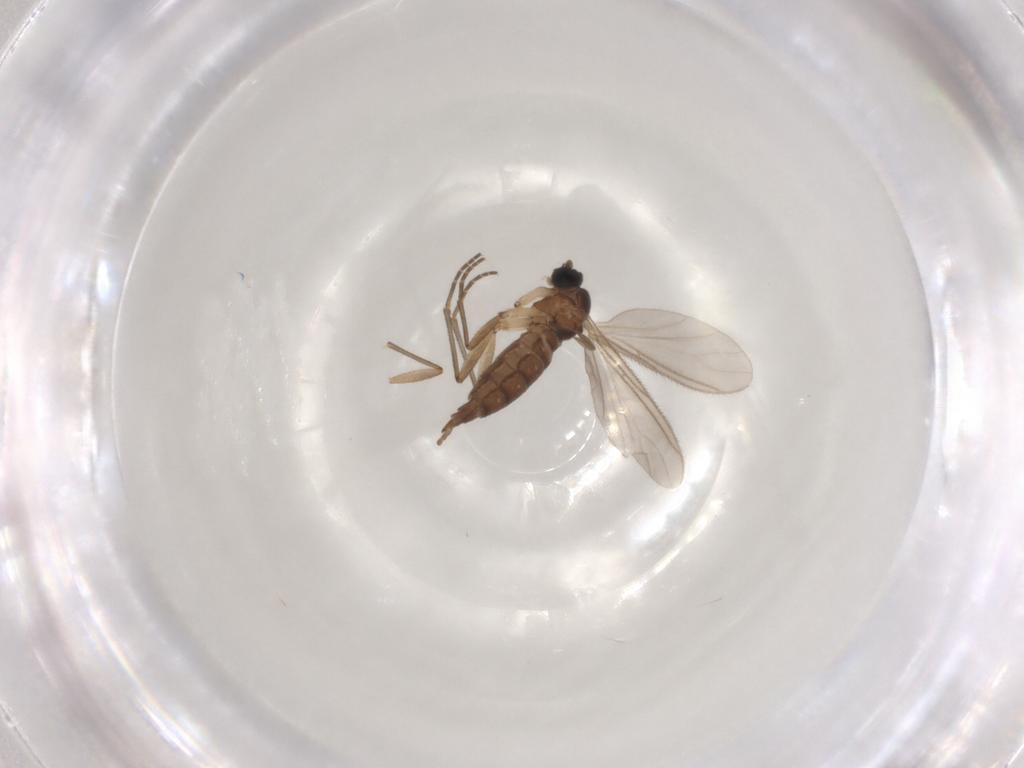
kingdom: Animalia
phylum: Arthropoda
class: Insecta
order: Diptera
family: Sciaridae
